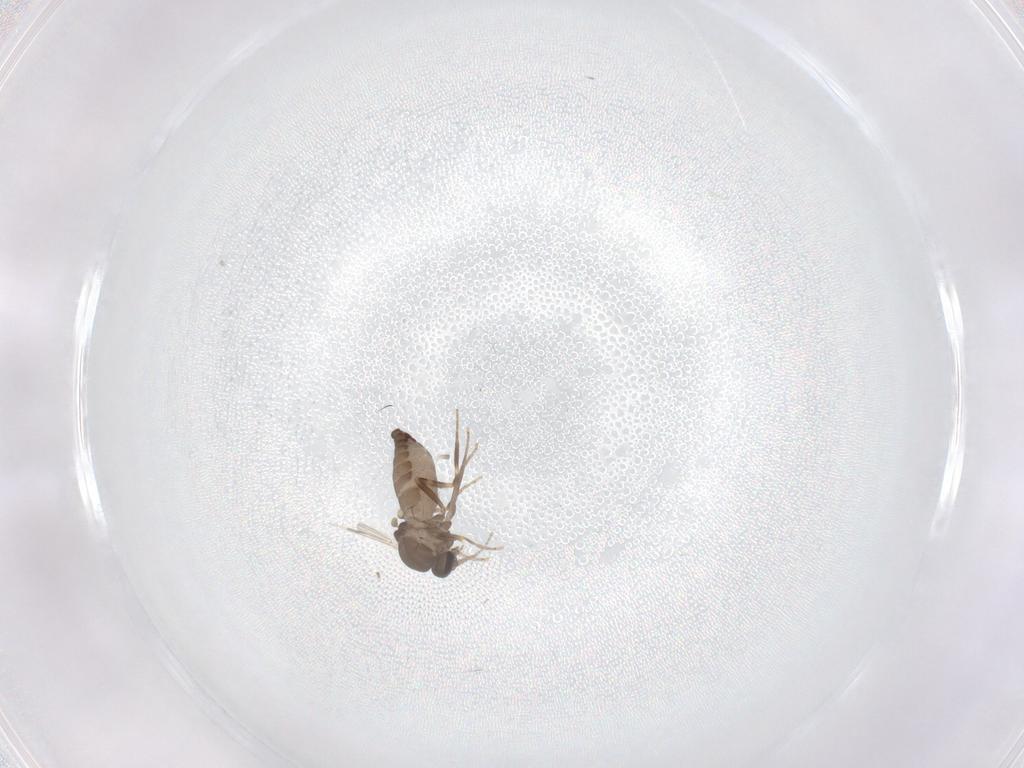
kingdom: Animalia
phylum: Arthropoda
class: Insecta
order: Diptera
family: Ceratopogonidae
